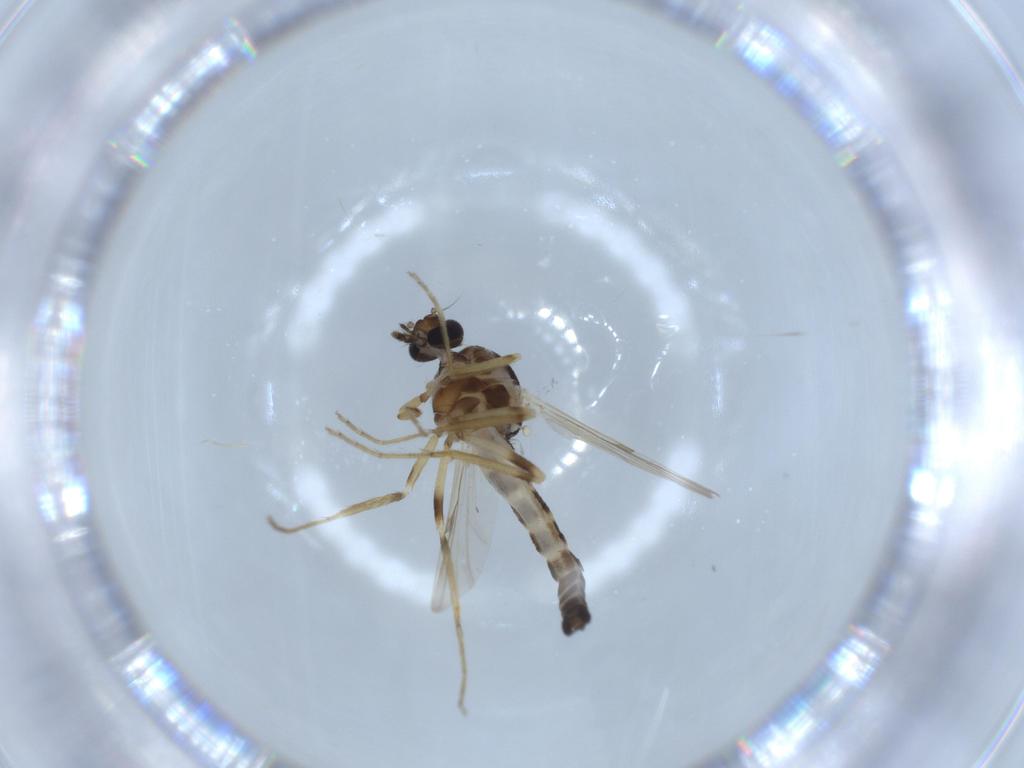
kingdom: Animalia
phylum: Arthropoda
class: Insecta
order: Diptera
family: Ceratopogonidae
